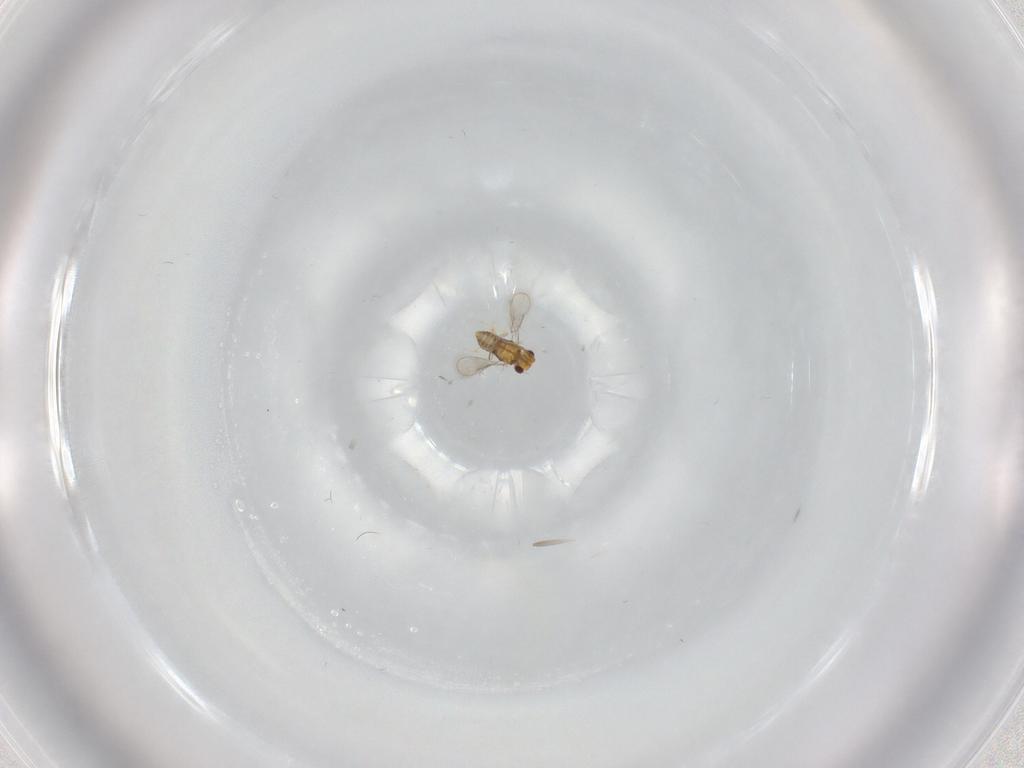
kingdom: Animalia
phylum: Arthropoda
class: Insecta
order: Hymenoptera
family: Aphelinidae
